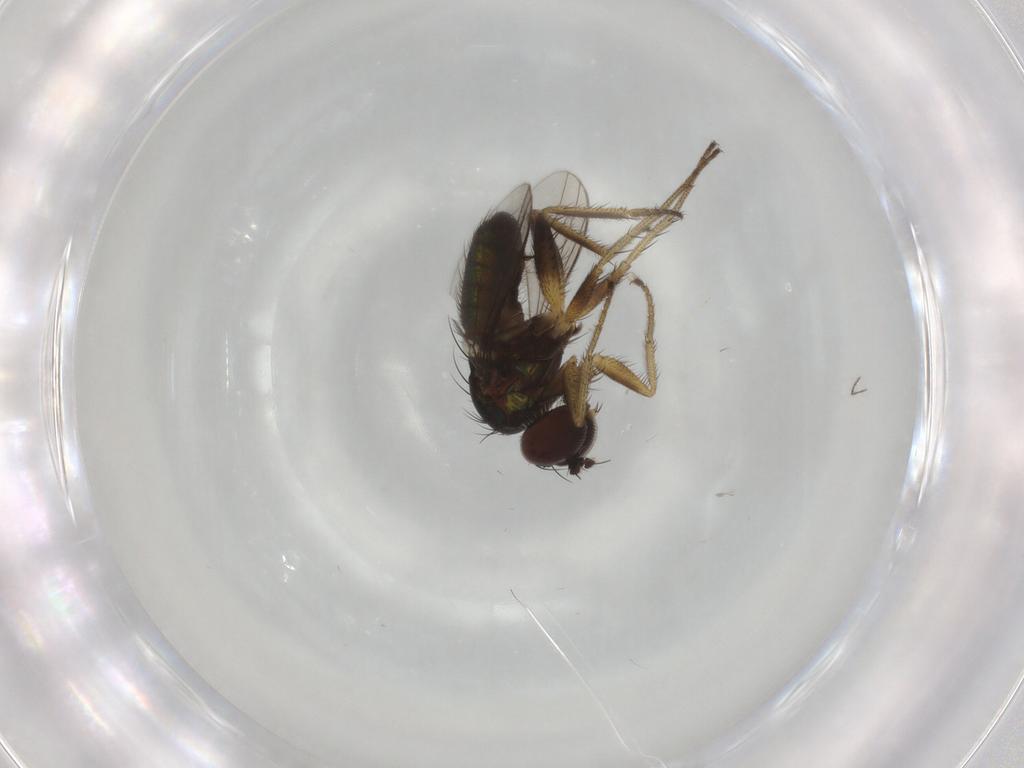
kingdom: Animalia
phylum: Arthropoda
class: Insecta
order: Diptera
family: Dolichopodidae
